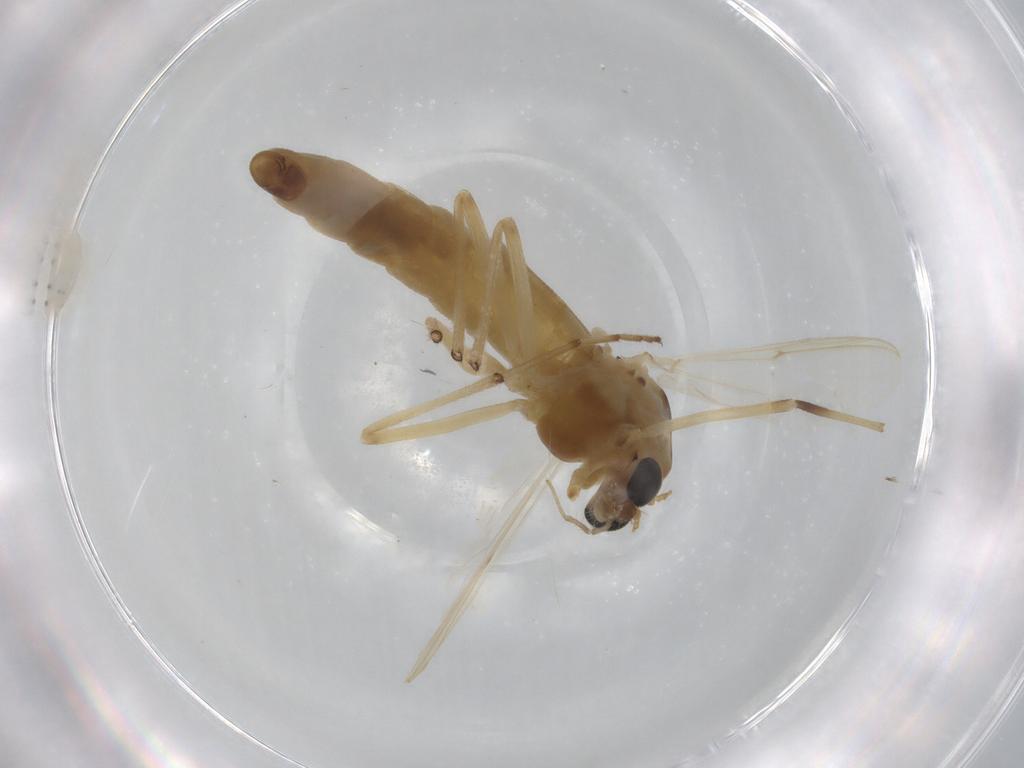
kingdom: Animalia
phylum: Arthropoda
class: Insecta
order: Diptera
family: Chironomidae
